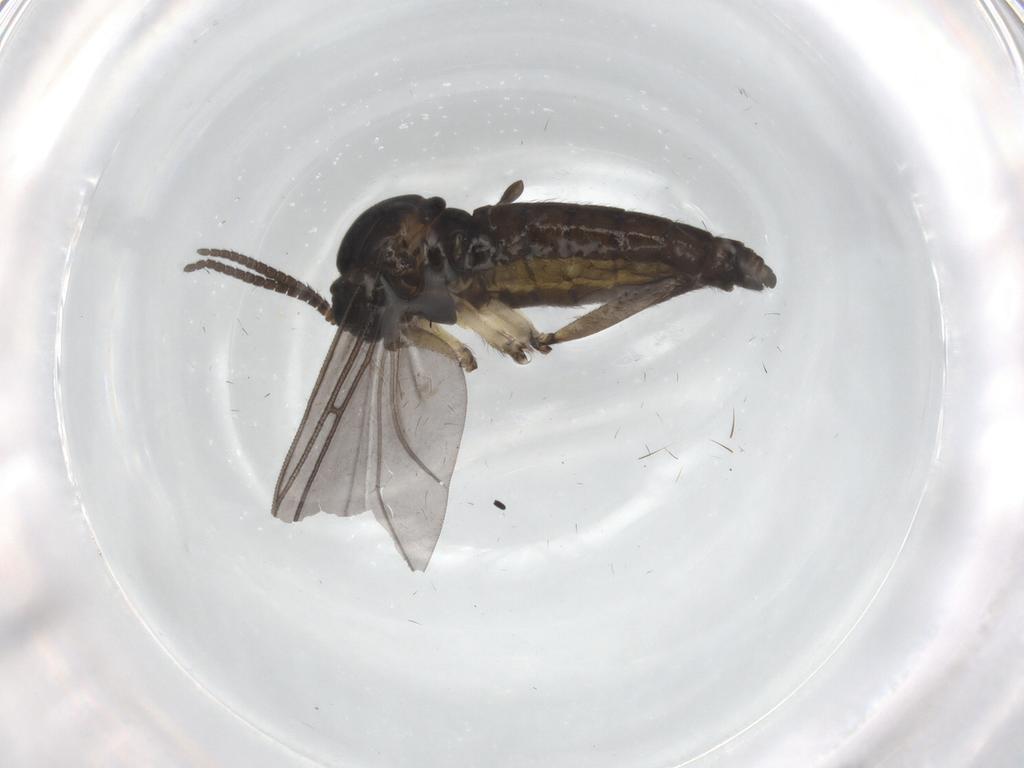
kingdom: Animalia
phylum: Arthropoda
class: Insecta
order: Diptera
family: Sciaridae
